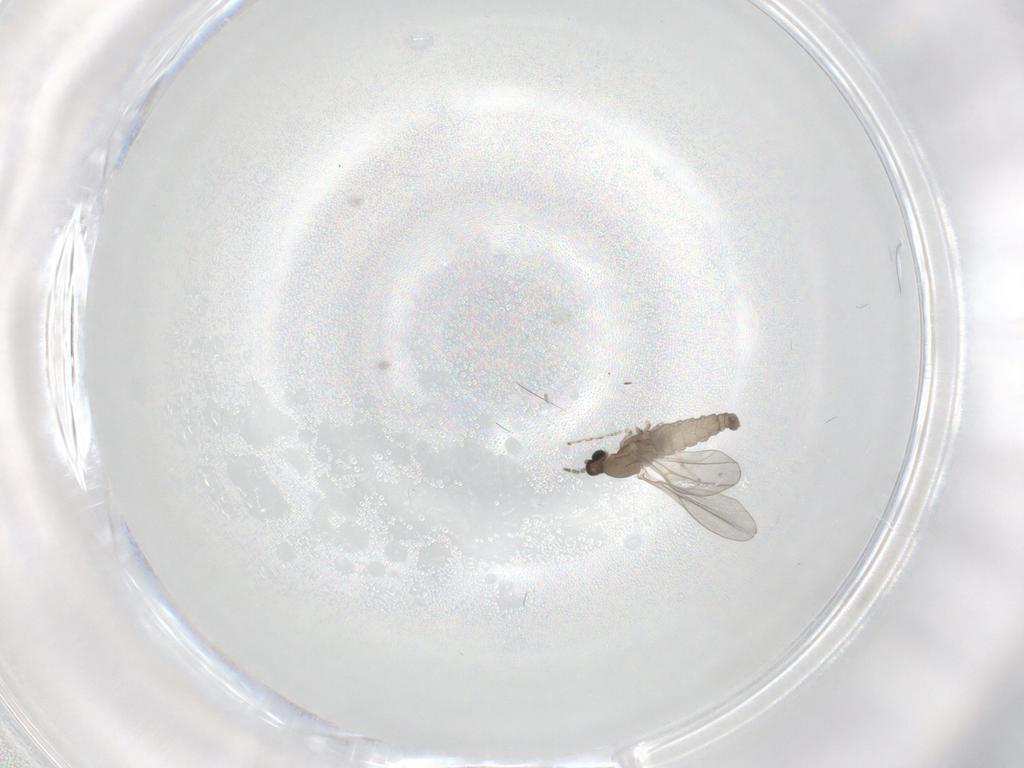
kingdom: Animalia
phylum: Arthropoda
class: Insecta
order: Diptera
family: Cecidomyiidae
